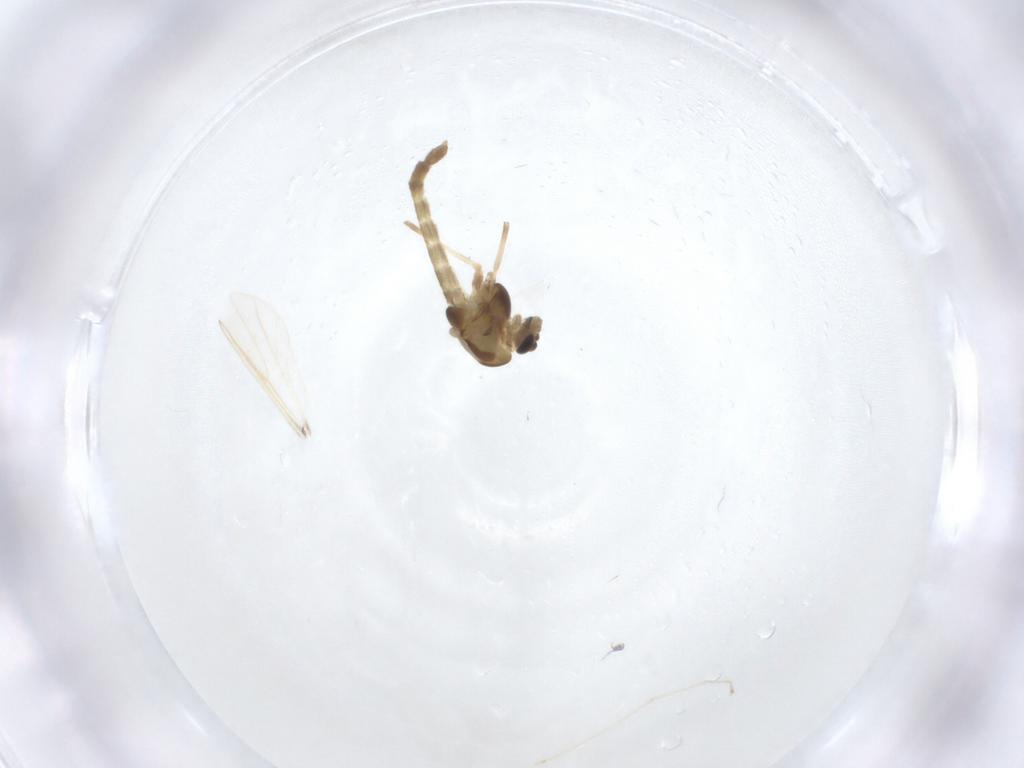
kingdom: Animalia
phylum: Arthropoda
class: Insecta
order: Diptera
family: Chironomidae
